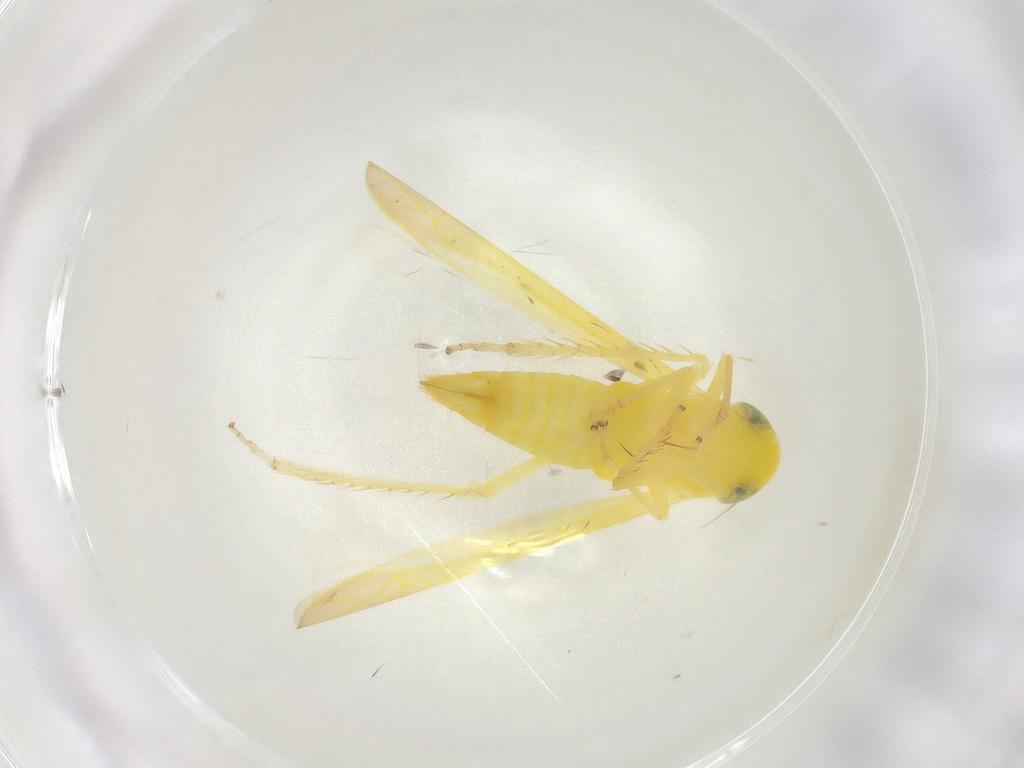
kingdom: Animalia
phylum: Arthropoda
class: Insecta
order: Hemiptera
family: Cicadellidae
